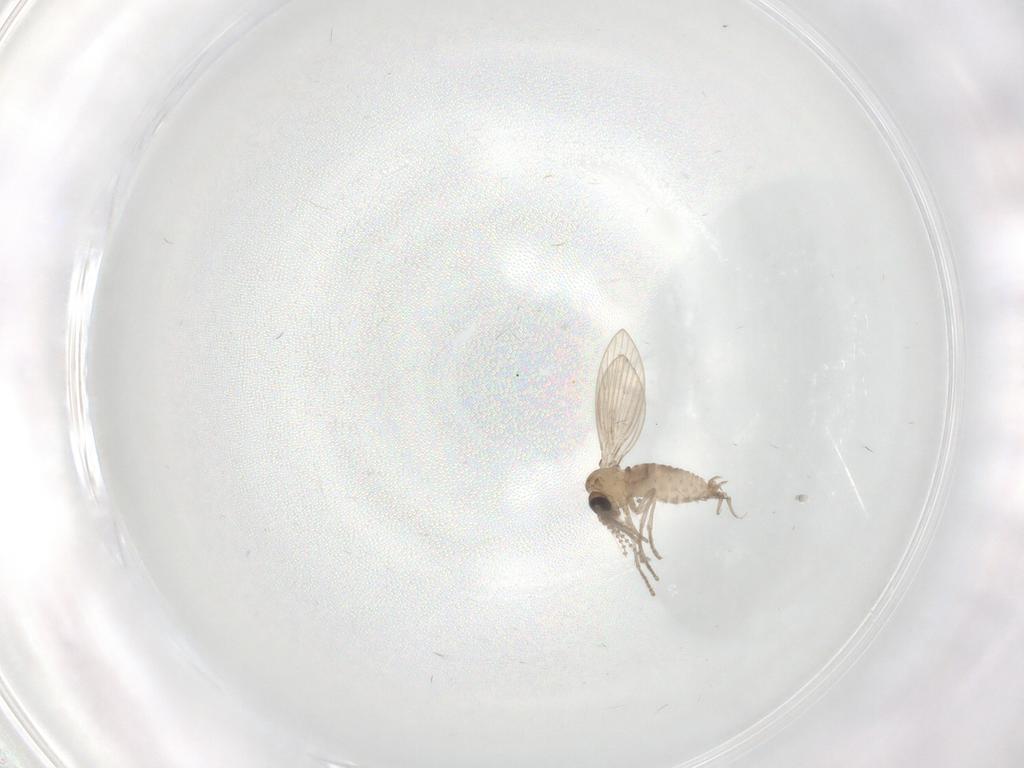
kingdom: Animalia
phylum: Arthropoda
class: Insecta
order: Diptera
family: Psychodidae
